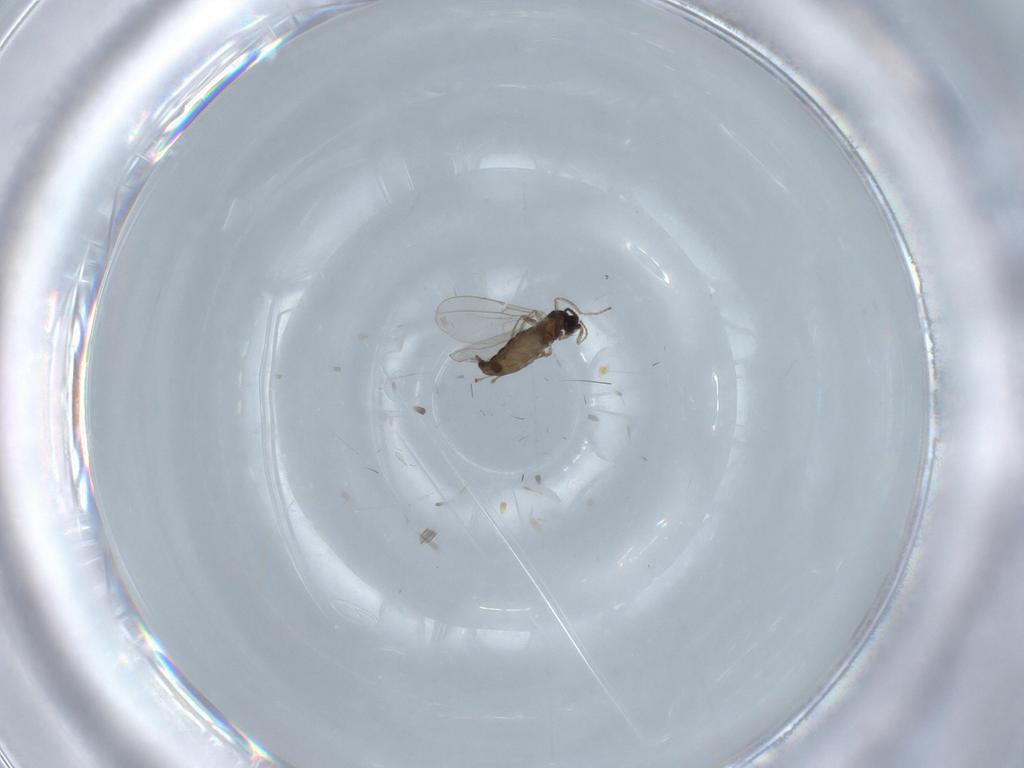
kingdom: Animalia
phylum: Arthropoda
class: Insecta
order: Diptera
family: Cecidomyiidae
